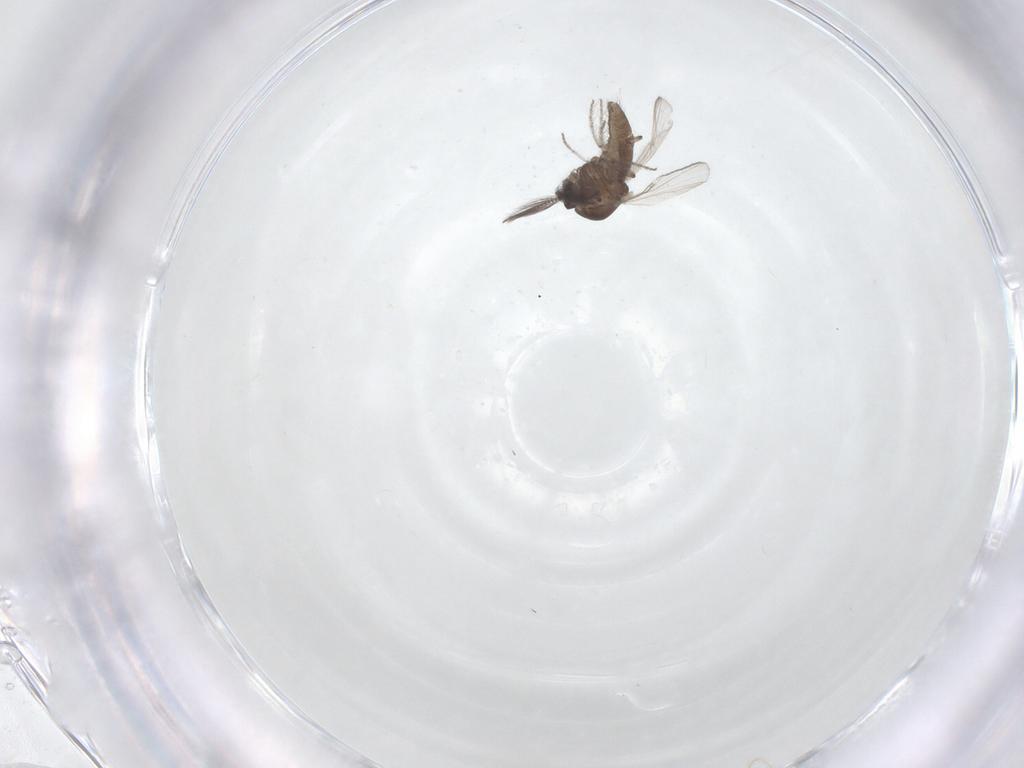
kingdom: Animalia
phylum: Arthropoda
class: Insecta
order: Diptera
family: Ceratopogonidae
